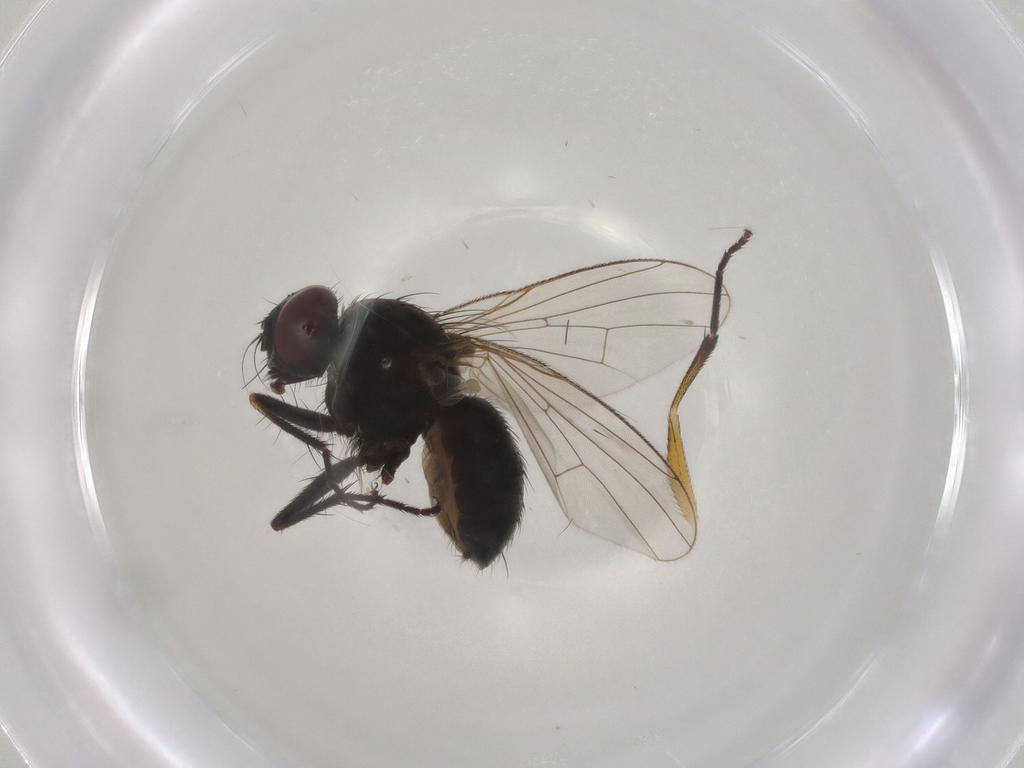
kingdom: Animalia
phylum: Arthropoda
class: Insecta
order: Diptera
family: Muscidae
